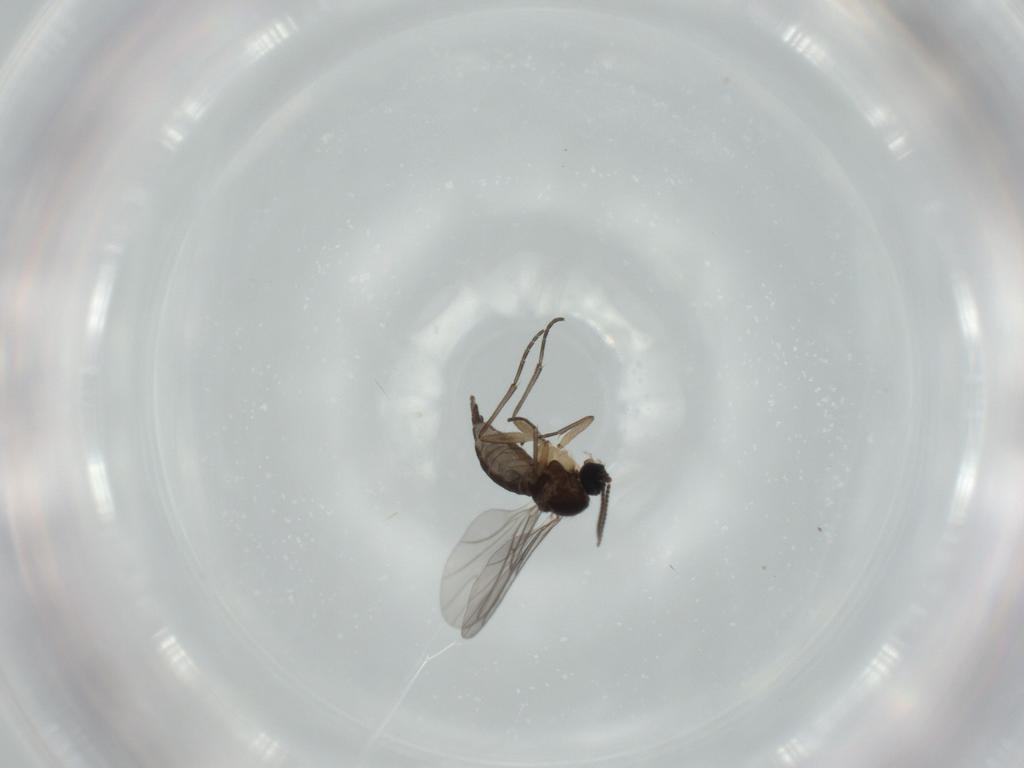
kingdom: Animalia
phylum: Arthropoda
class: Insecta
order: Diptera
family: Sciaridae
